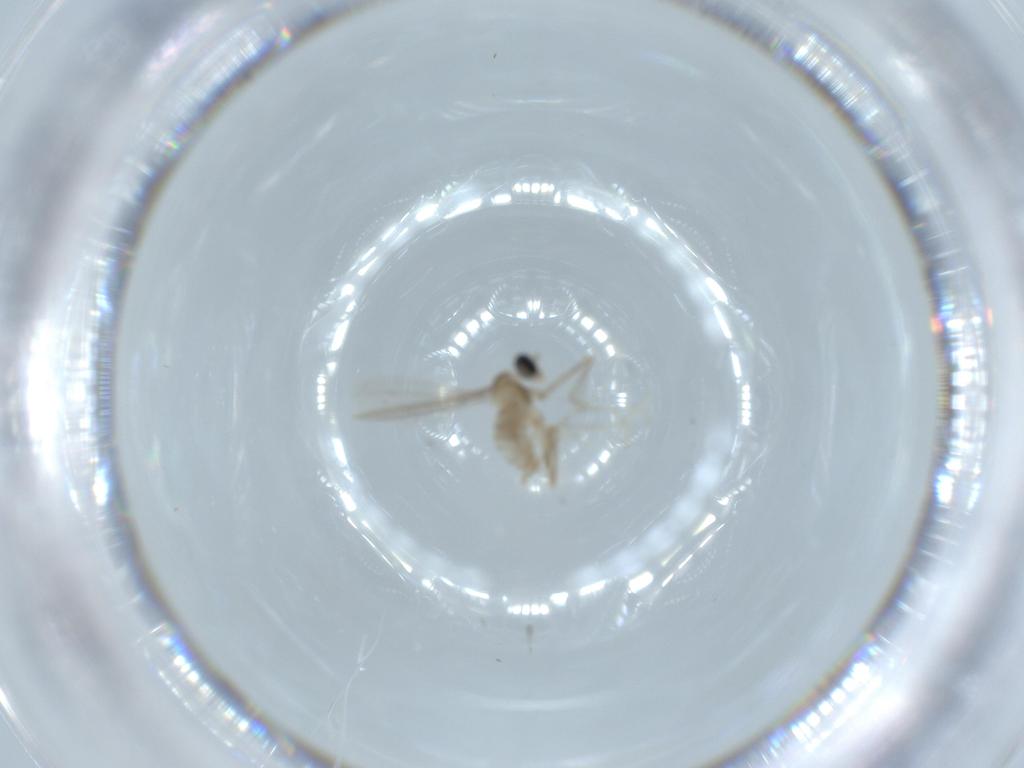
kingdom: Animalia
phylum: Arthropoda
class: Insecta
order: Diptera
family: Cecidomyiidae
